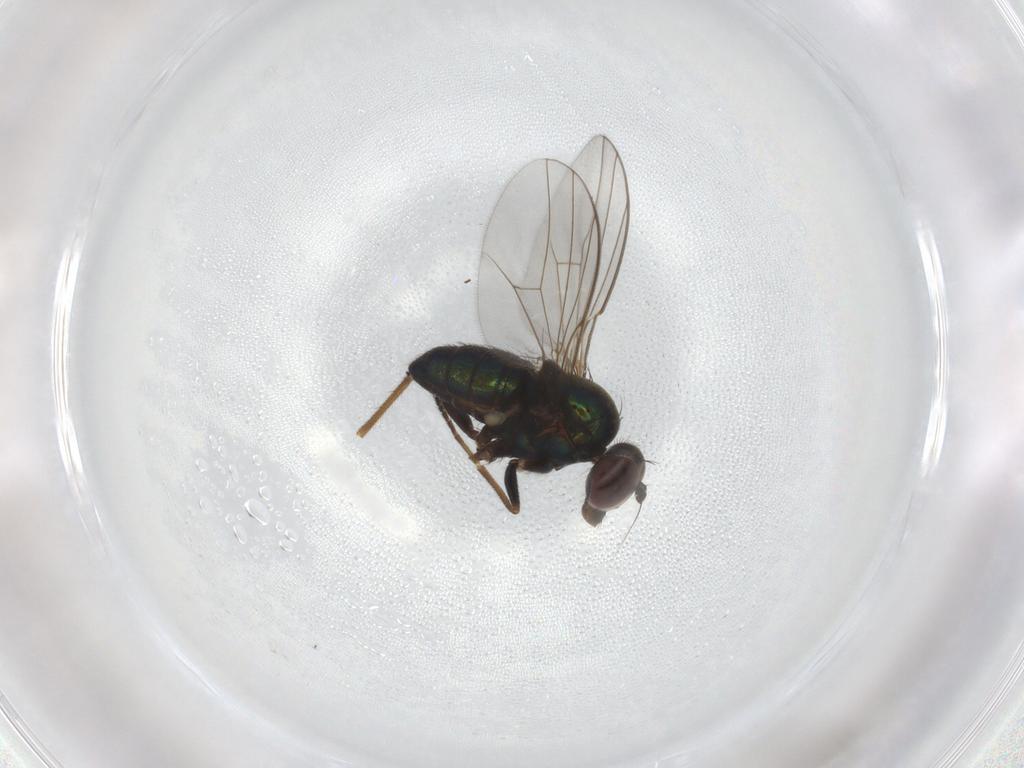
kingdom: Animalia
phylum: Arthropoda
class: Insecta
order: Diptera
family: Dolichopodidae
